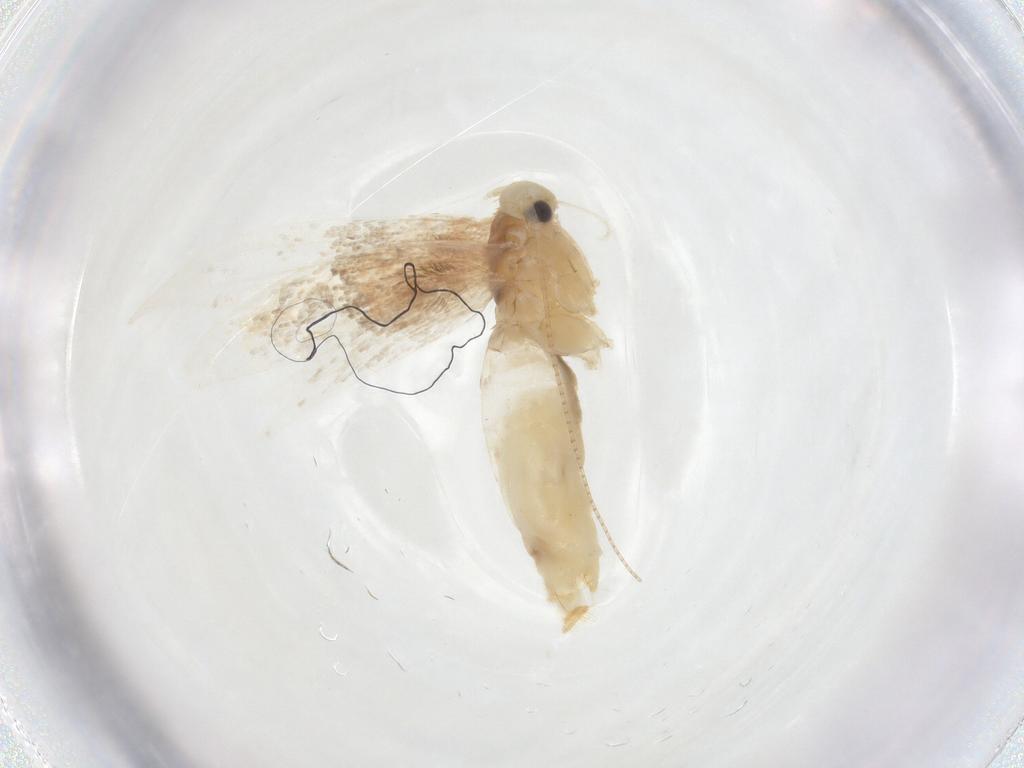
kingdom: Animalia
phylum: Arthropoda
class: Insecta
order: Lepidoptera
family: Gracillariidae
